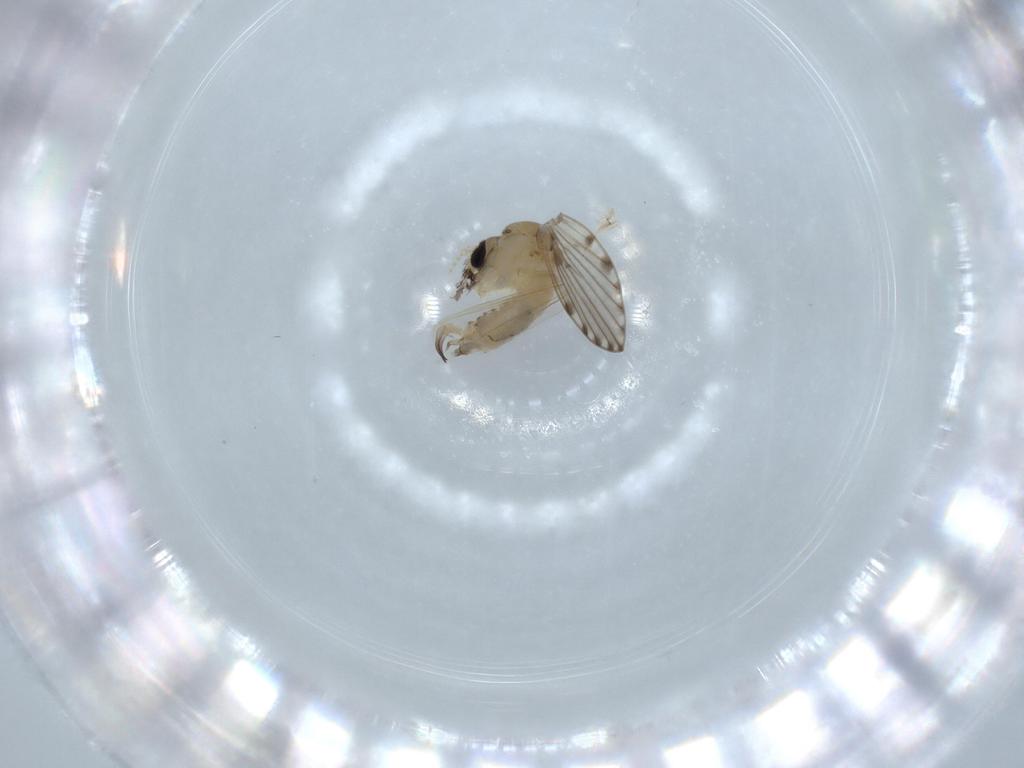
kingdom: Animalia
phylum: Arthropoda
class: Insecta
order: Diptera
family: Psychodidae
